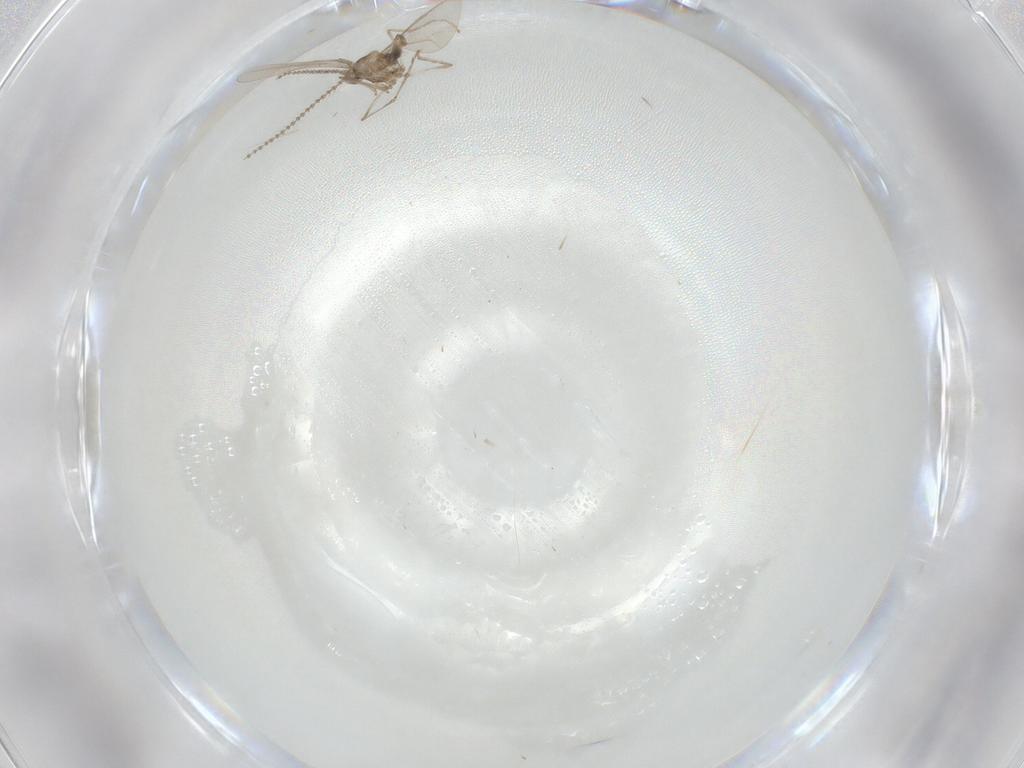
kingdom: Animalia
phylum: Arthropoda
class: Insecta
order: Diptera
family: Cecidomyiidae
